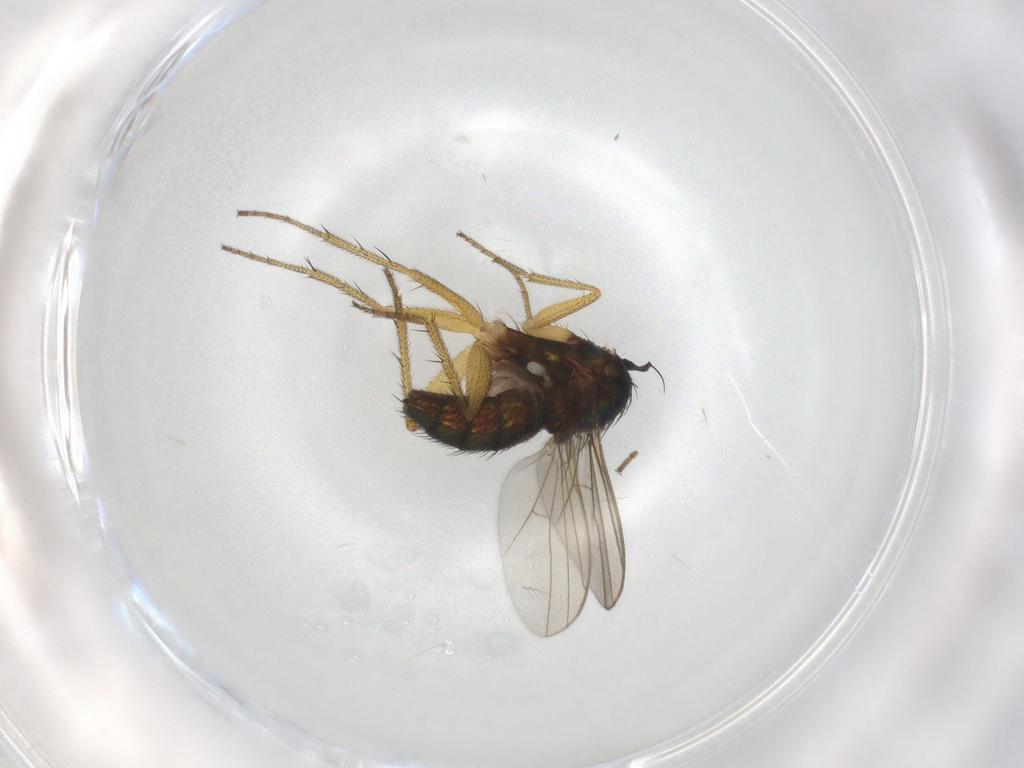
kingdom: Animalia
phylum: Arthropoda
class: Insecta
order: Diptera
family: Dolichopodidae
